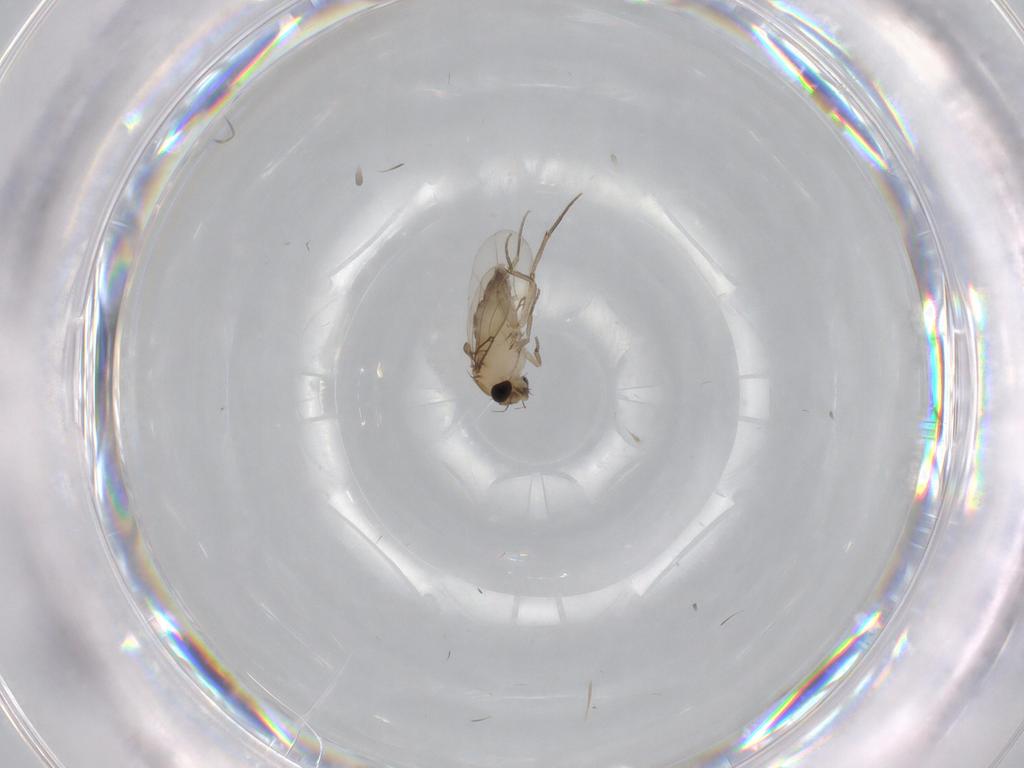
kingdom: Animalia
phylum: Arthropoda
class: Insecta
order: Diptera
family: Phoridae
